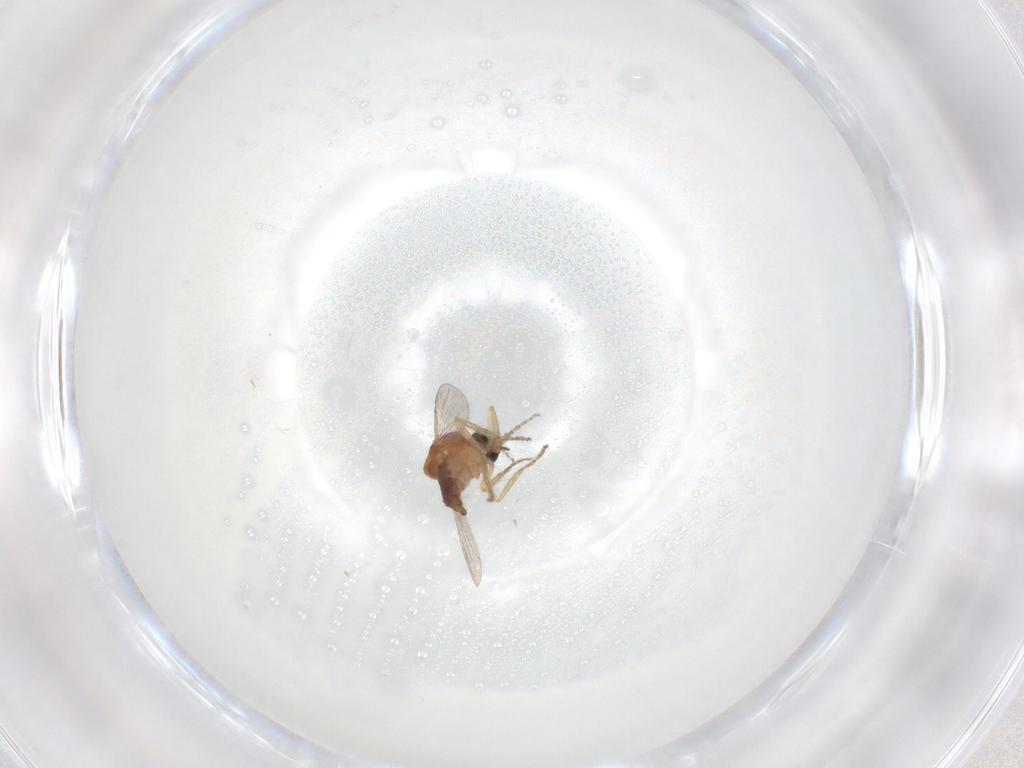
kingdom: Animalia
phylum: Arthropoda
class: Insecta
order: Diptera
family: Ceratopogonidae
